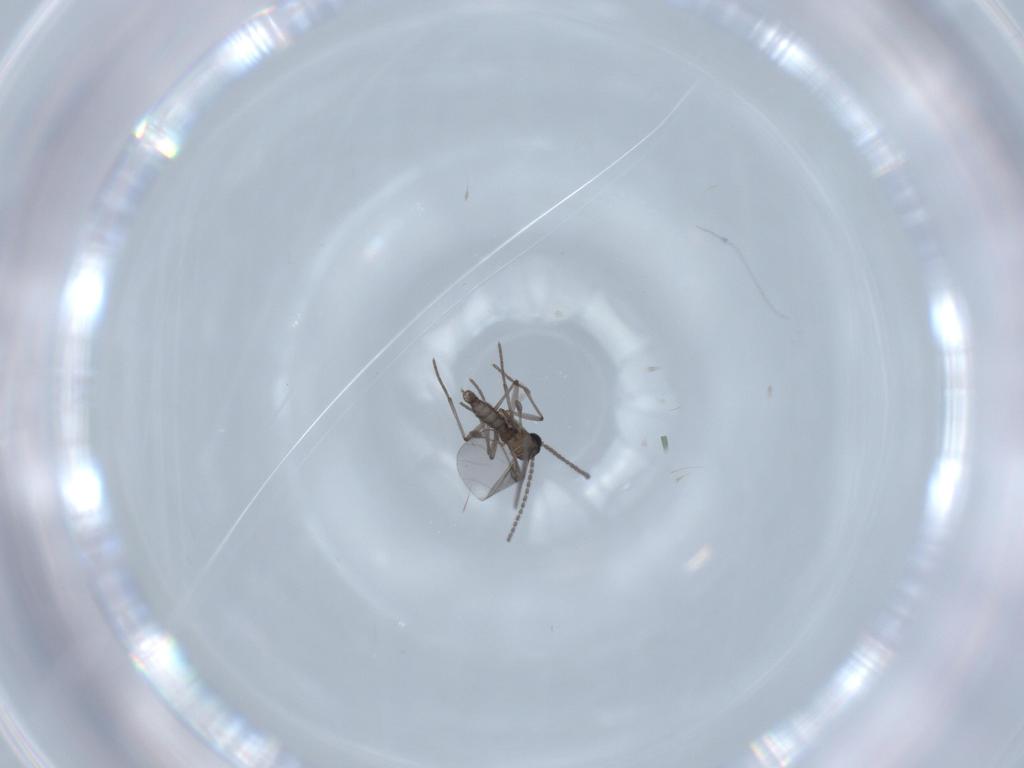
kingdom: Animalia
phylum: Arthropoda
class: Insecta
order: Diptera
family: Sciaridae
